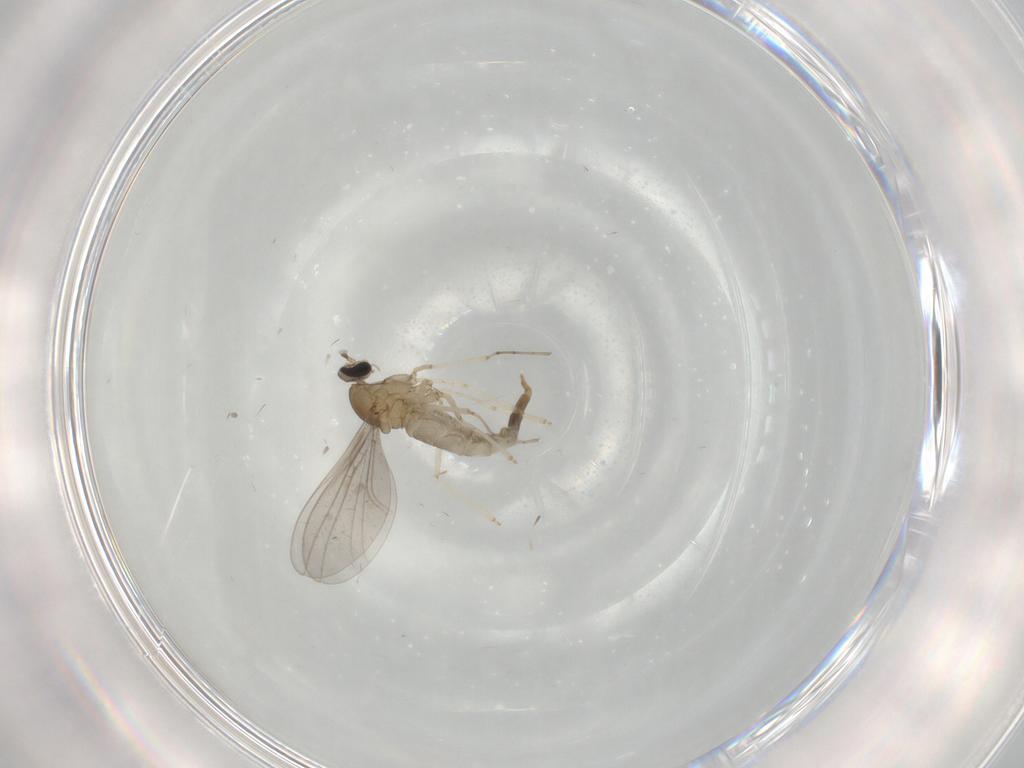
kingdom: Animalia
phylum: Arthropoda
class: Insecta
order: Diptera
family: Cecidomyiidae
